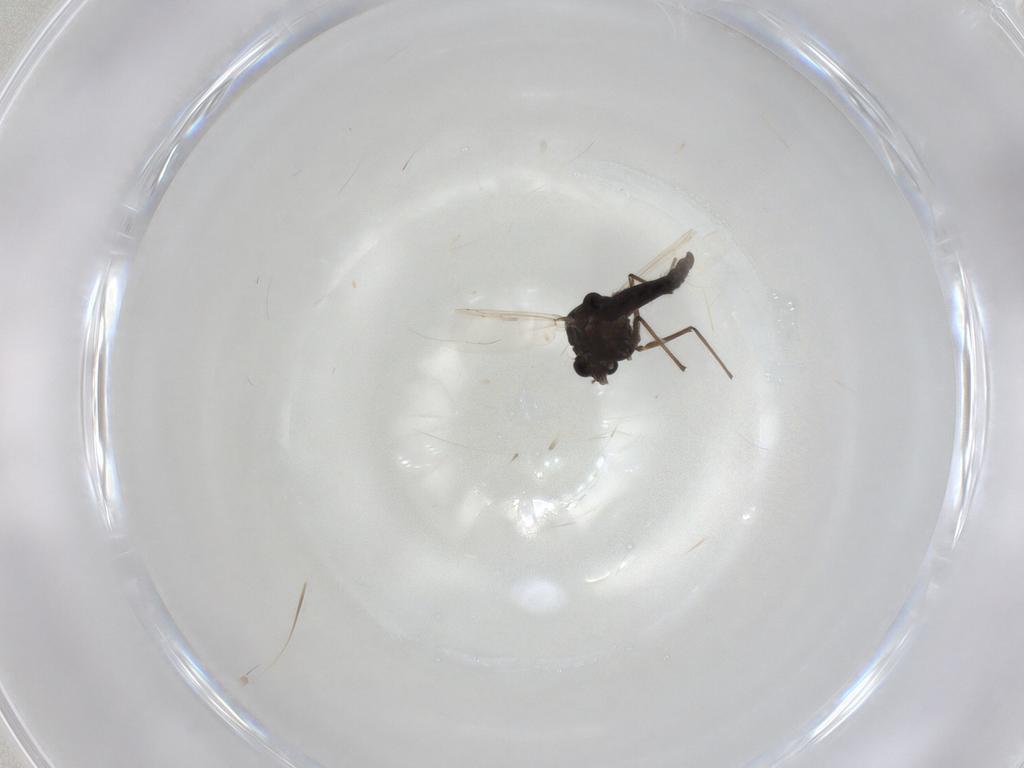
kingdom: Animalia
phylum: Arthropoda
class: Insecta
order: Diptera
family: Chironomidae
